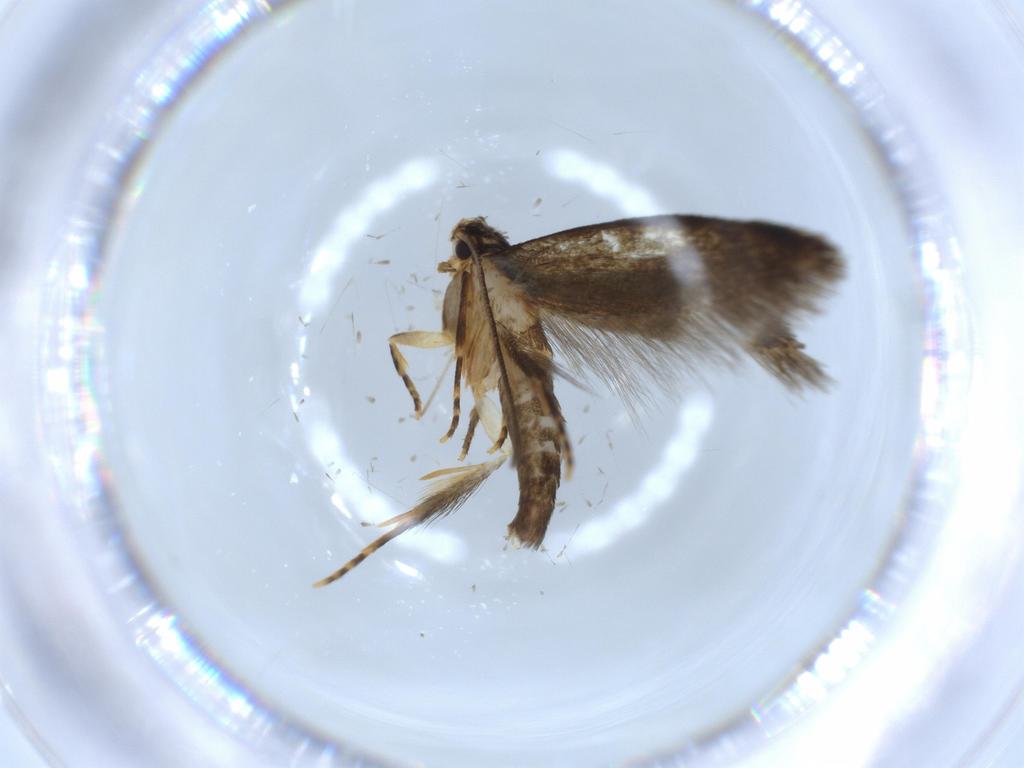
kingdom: Animalia
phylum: Arthropoda
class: Insecta
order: Lepidoptera
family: Tineidae
